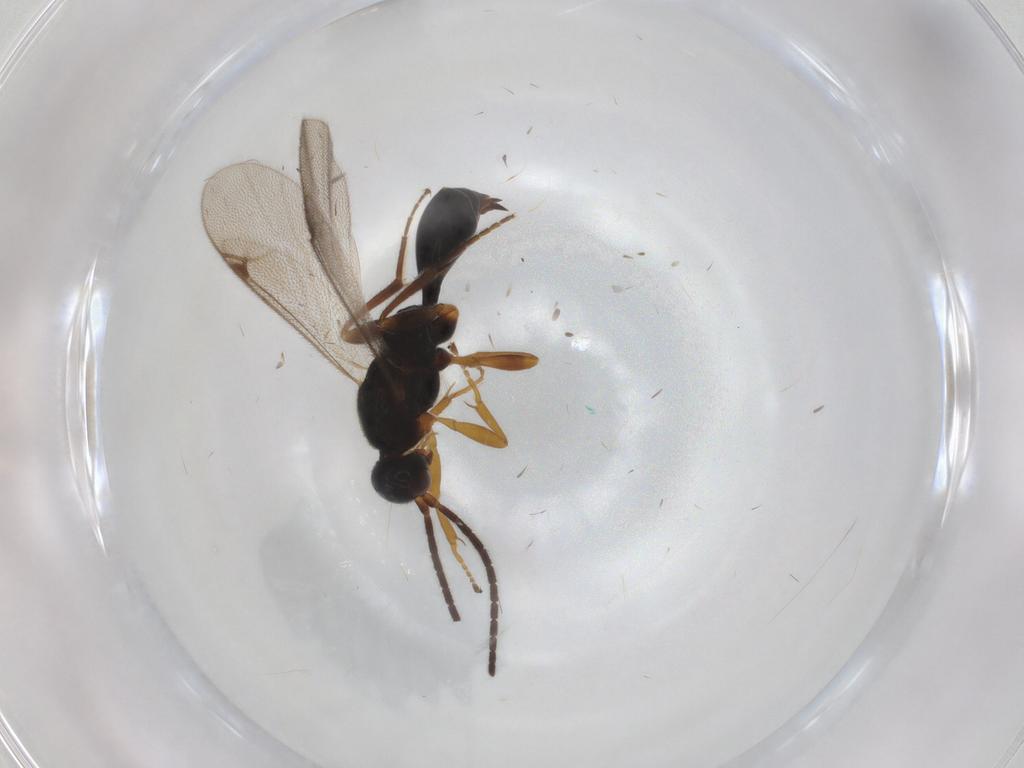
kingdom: Animalia
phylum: Arthropoda
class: Insecta
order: Hymenoptera
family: Proctotrupidae
